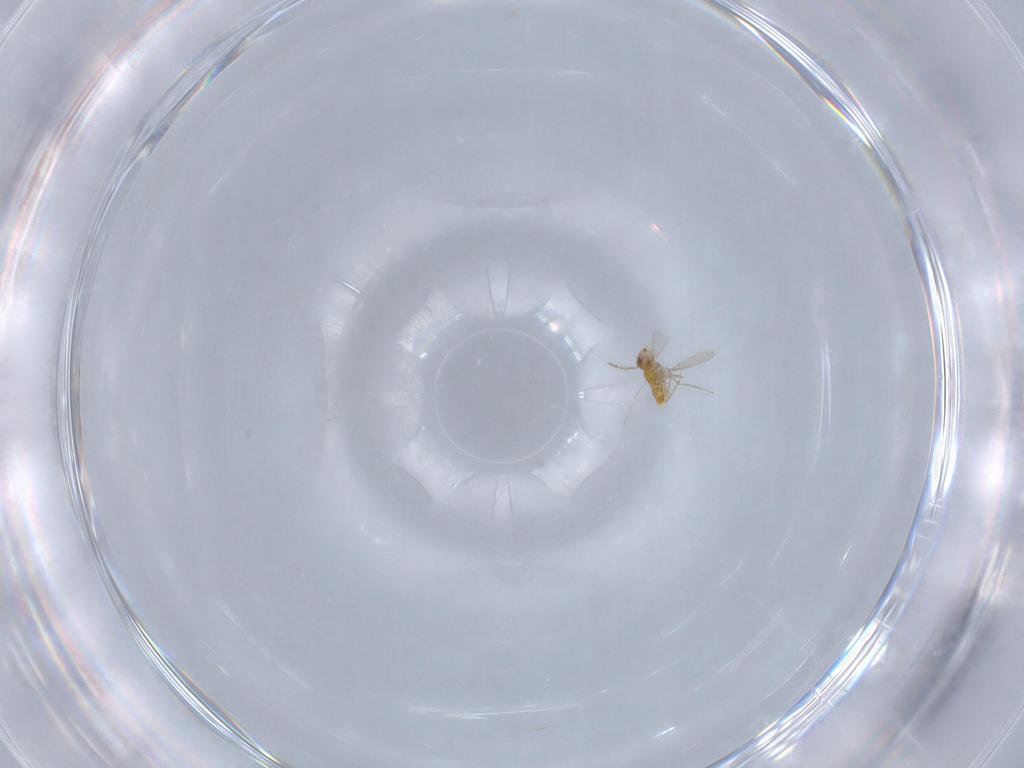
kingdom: Animalia
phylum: Arthropoda
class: Insecta
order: Hymenoptera
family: Aphelinidae
